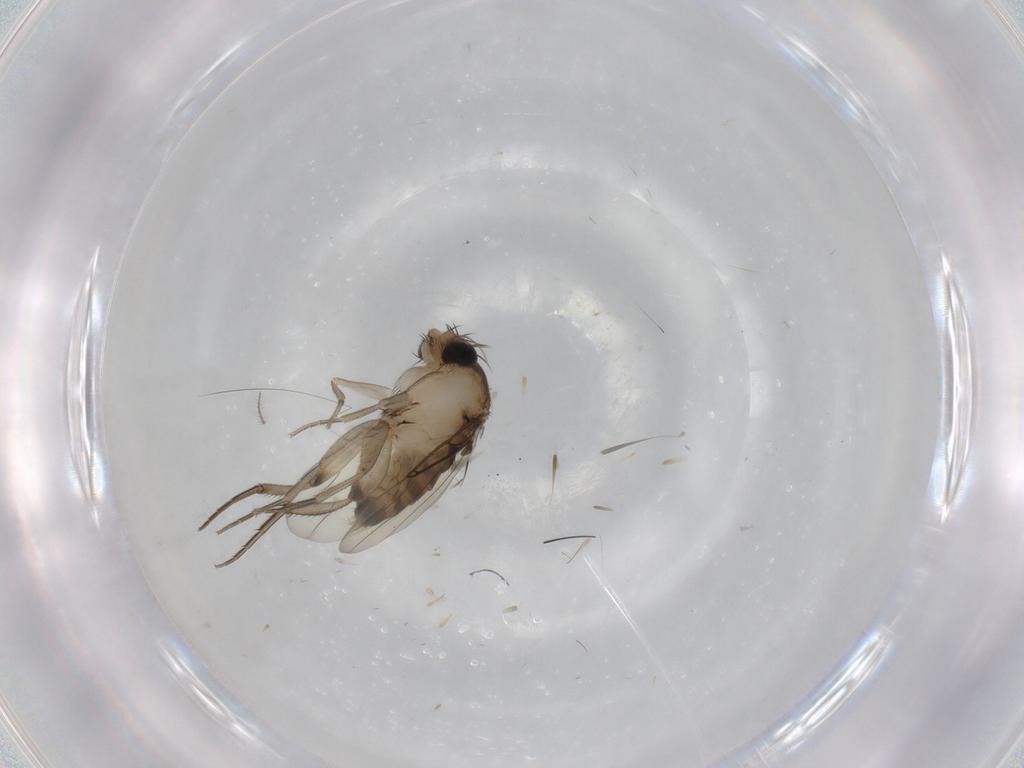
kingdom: Animalia
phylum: Arthropoda
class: Insecta
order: Diptera
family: Phoridae
